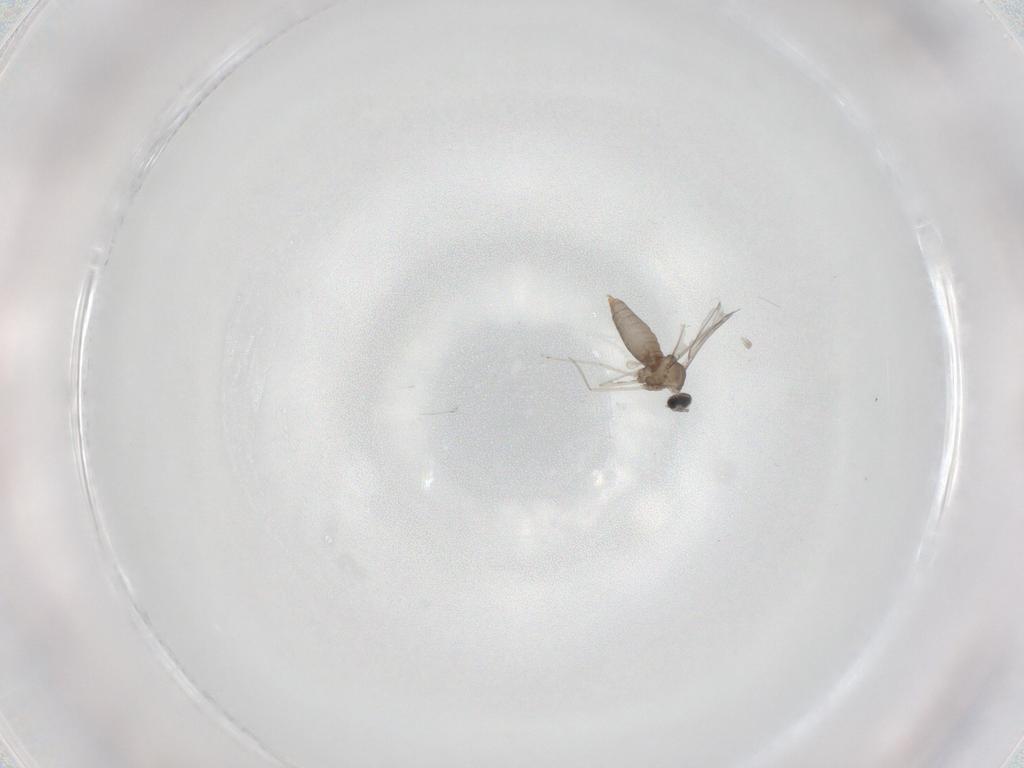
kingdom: Animalia
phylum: Arthropoda
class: Insecta
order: Diptera
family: Cecidomyiidae
